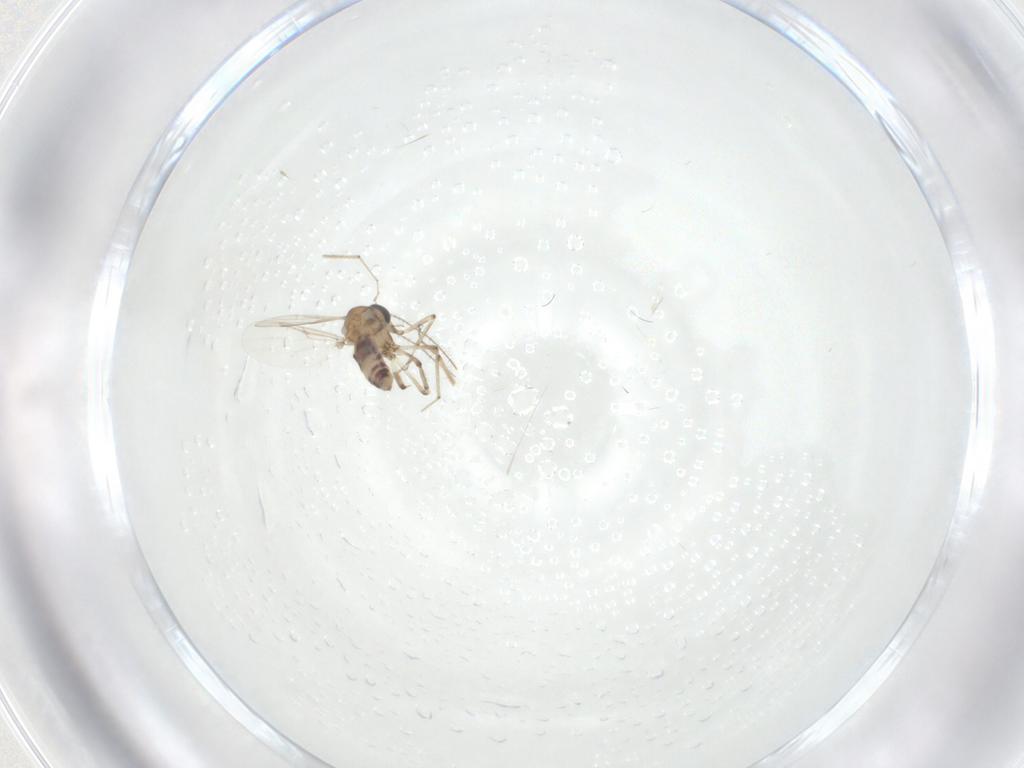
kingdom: Animalia
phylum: Arthropoda
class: Insecta
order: Diptera
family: Ceratopogonidae
